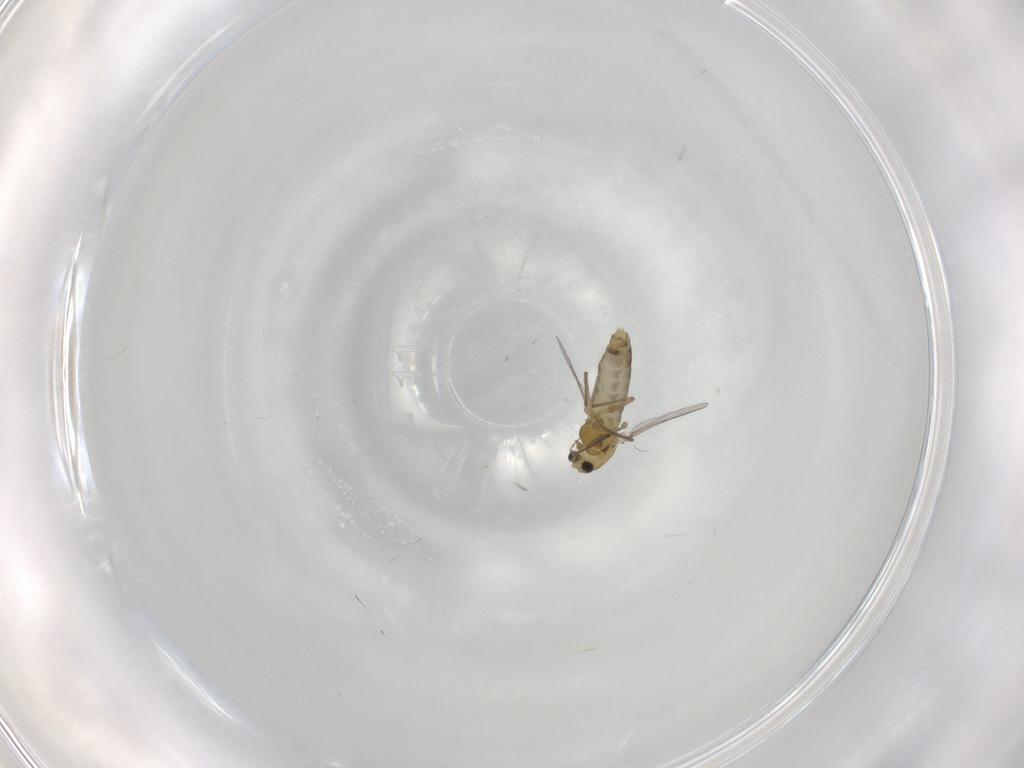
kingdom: Animalia
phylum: Arthropoda
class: Insecta
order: Diptera
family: Chironomidae
